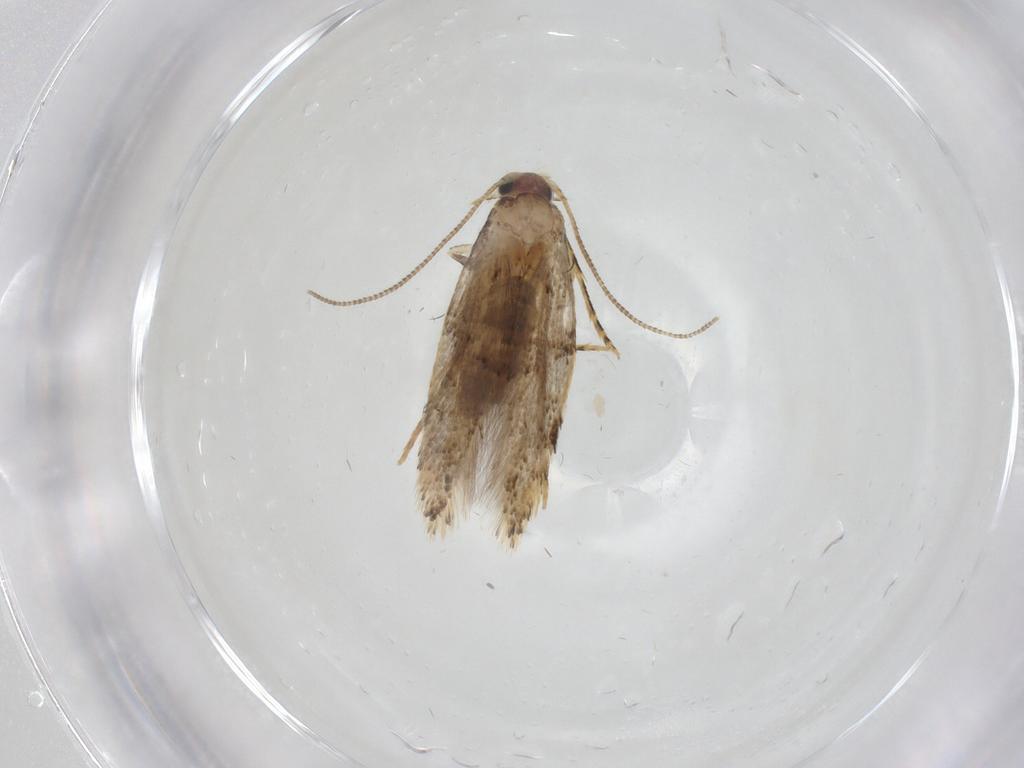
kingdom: Animalia
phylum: Arthropoda
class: Insecta
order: Lepidoptera
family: Tineidae
